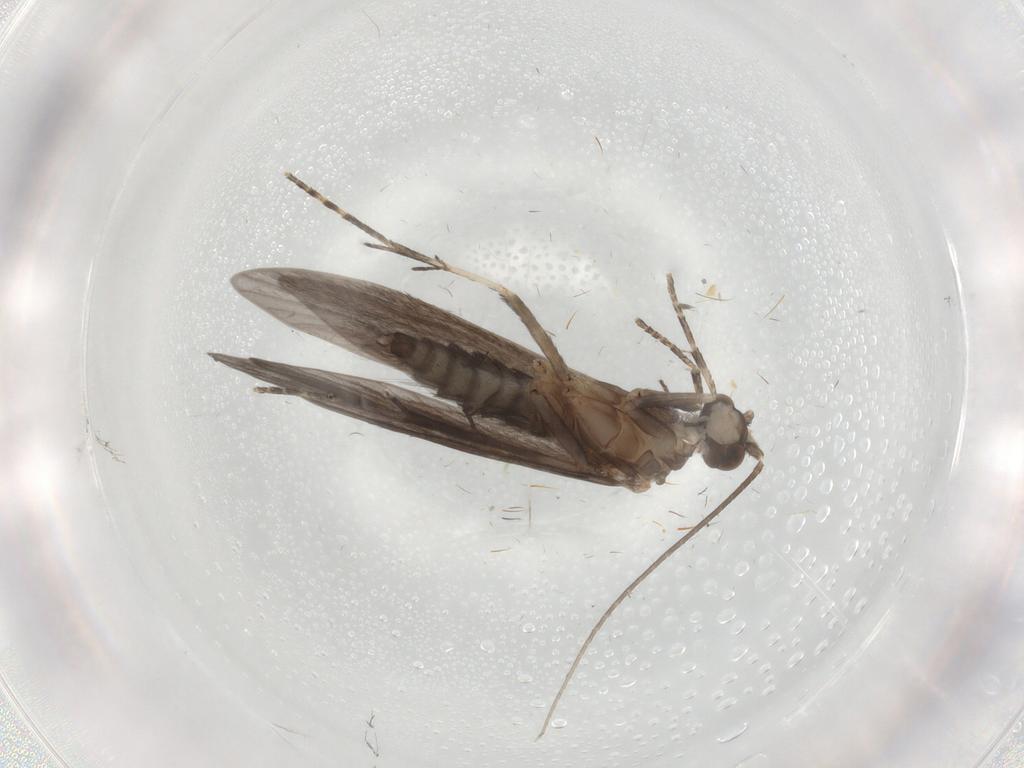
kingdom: Animalia
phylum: Arthropoda
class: Insecta
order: Trichoptera
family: Xiphocentronidae
